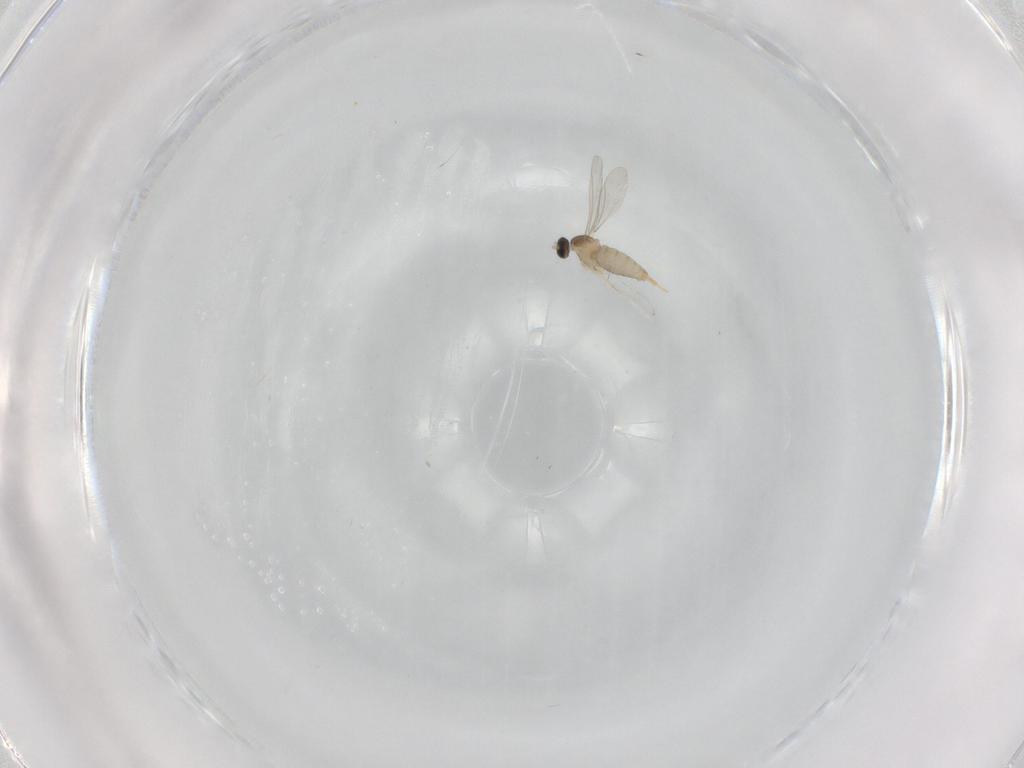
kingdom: Animalia
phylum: Arthropoda
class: Insecta
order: Diptera
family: Cecidomyiidae
